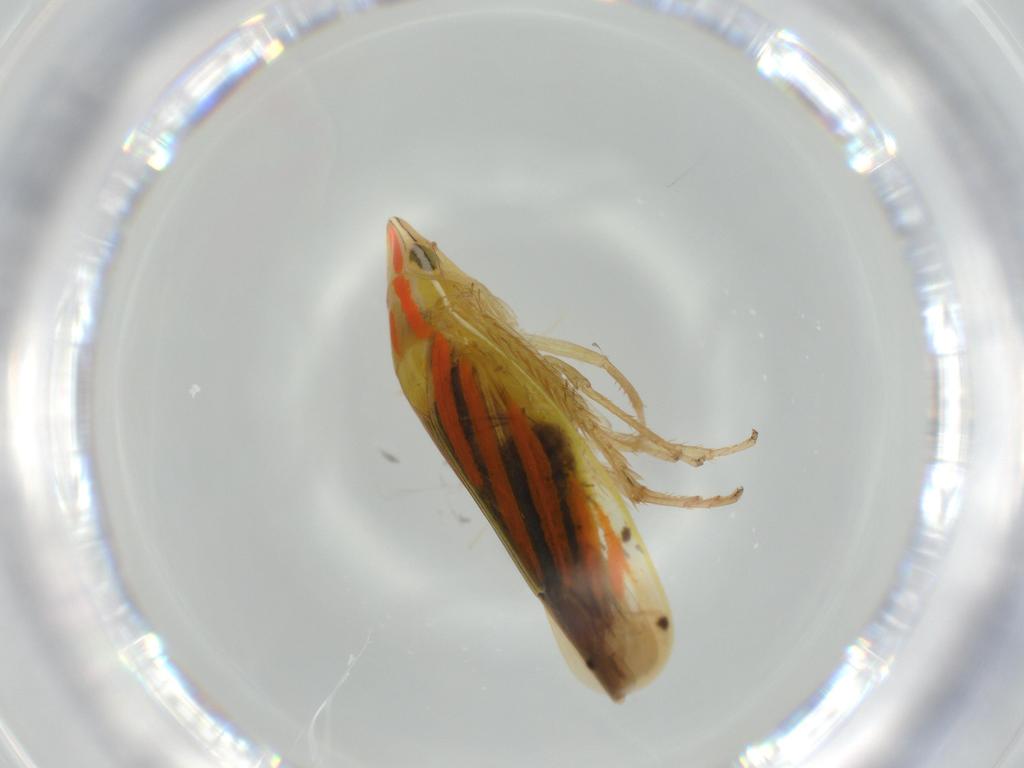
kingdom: Animalia
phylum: Arthropoda
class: Insecta
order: Hemiptera
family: Cicadellidae
